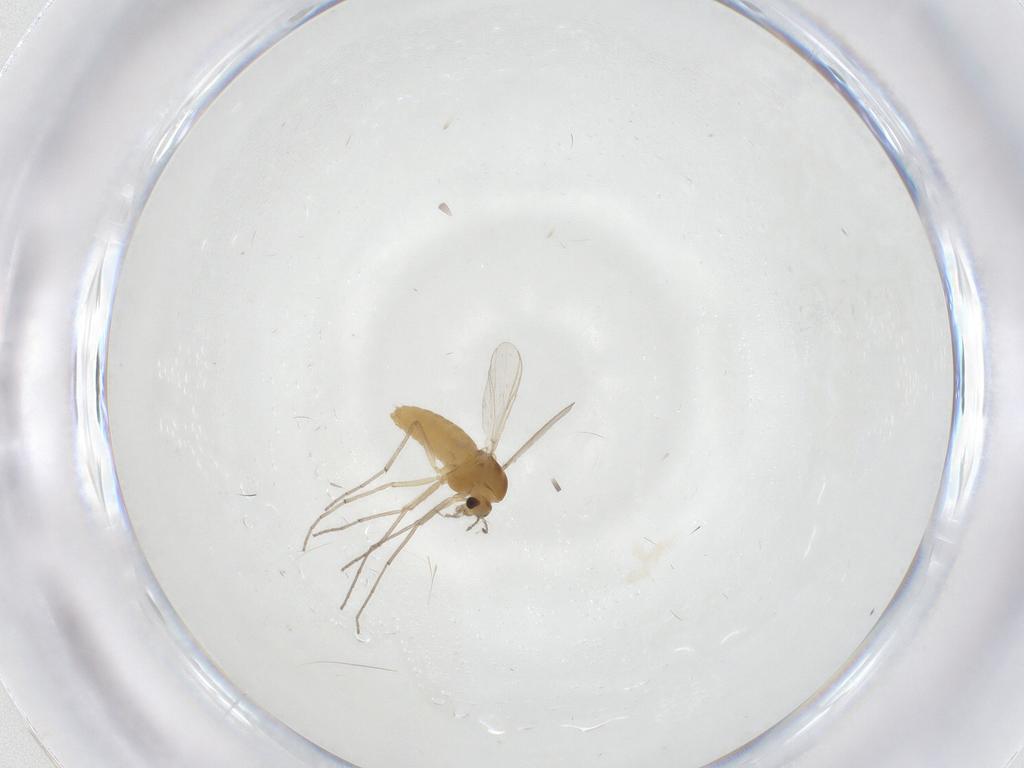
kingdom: Animalia
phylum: Arthropoda
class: Insecta
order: Diptera
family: Chironomidae
